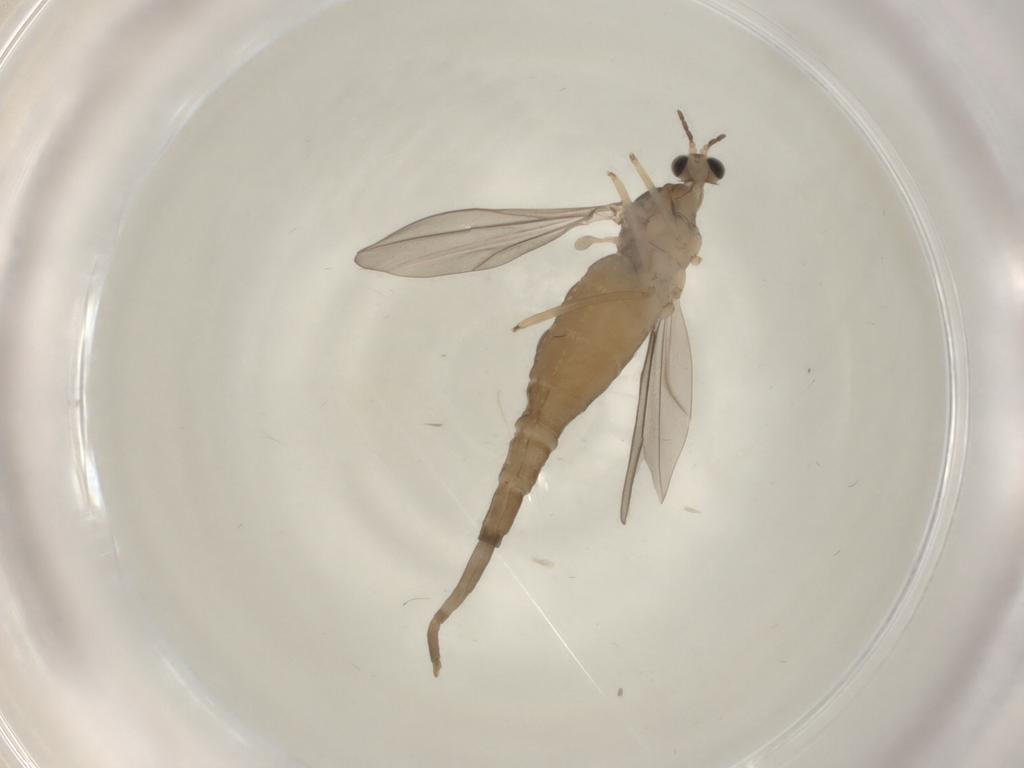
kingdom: Animalia
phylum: Arthropoda
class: Insecta
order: Diptera
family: Cecidomyiidae
